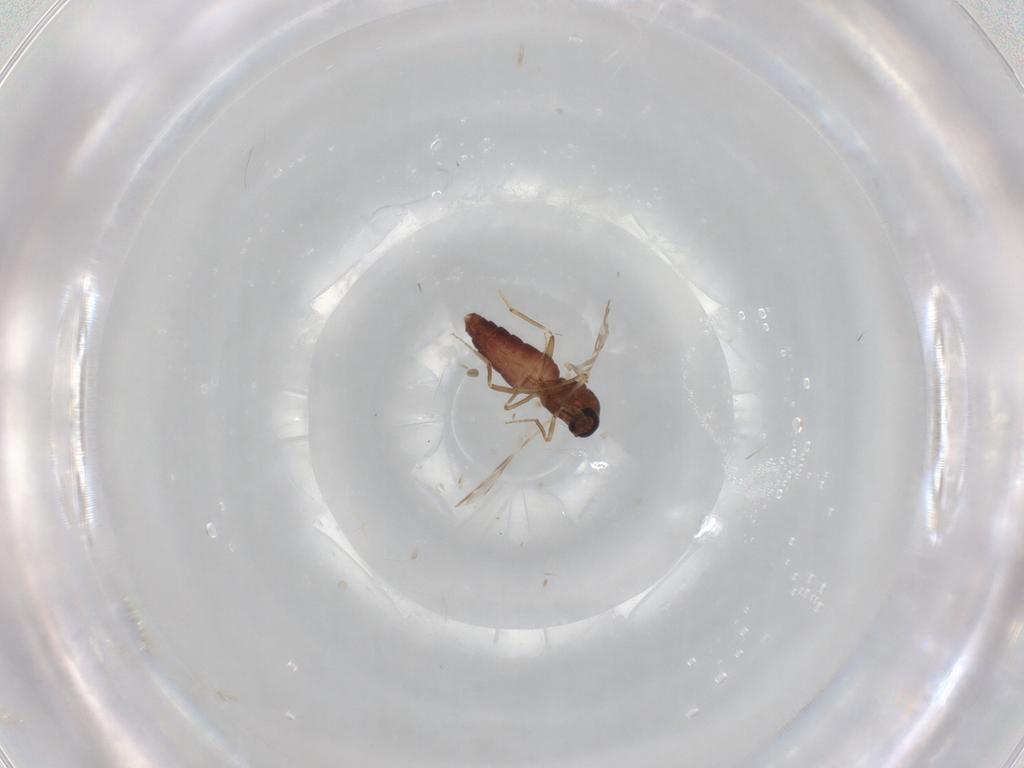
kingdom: Animalia
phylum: Arthropoda
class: Insecta
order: Diptera
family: Ceratopogonidae
